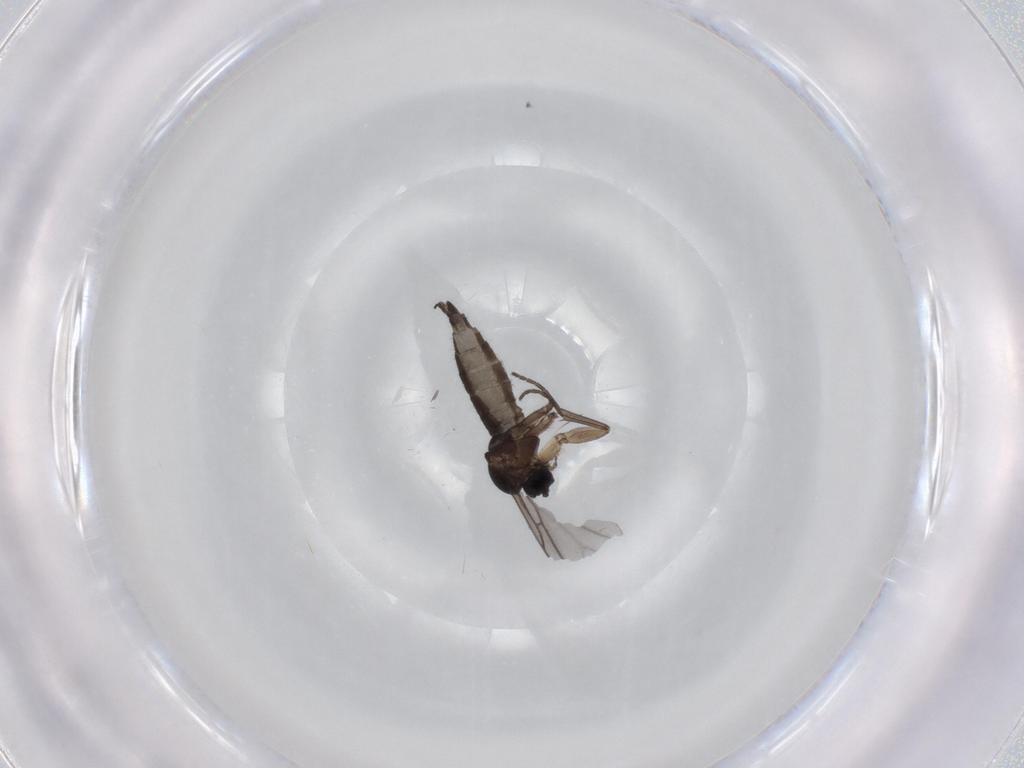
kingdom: Animalia
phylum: Arthropoda
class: Insecta
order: Diptera
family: Sciaridae
